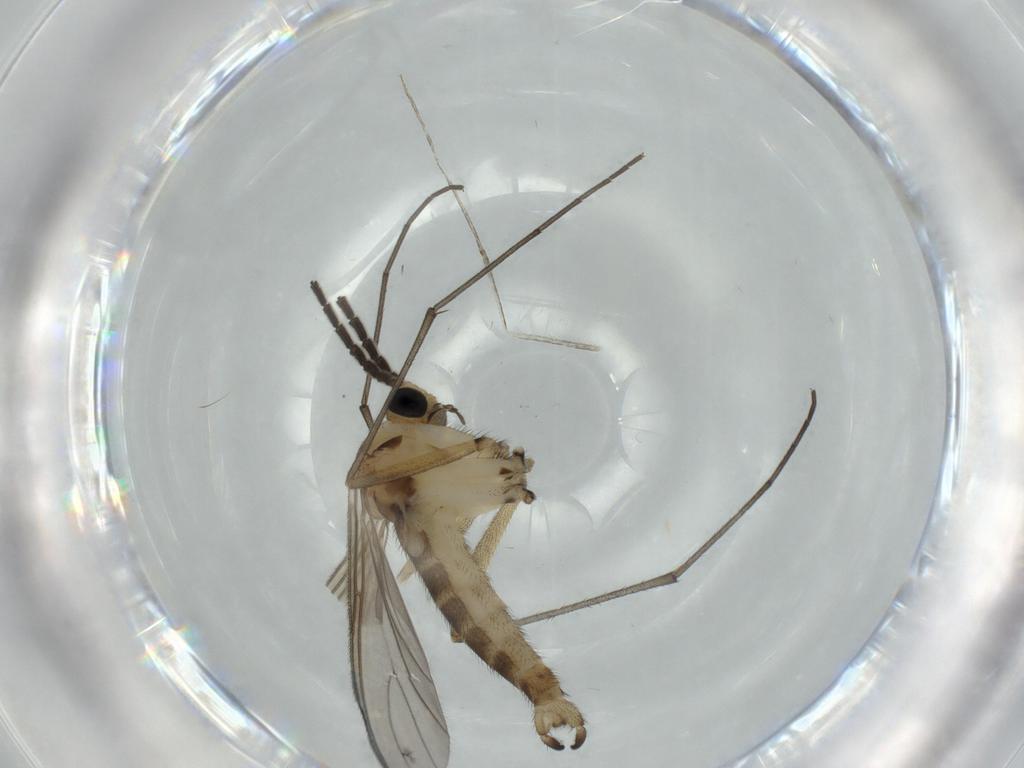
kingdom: Animalia
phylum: Arthropoda
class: Insecta
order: Diptera
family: Sciaridae
